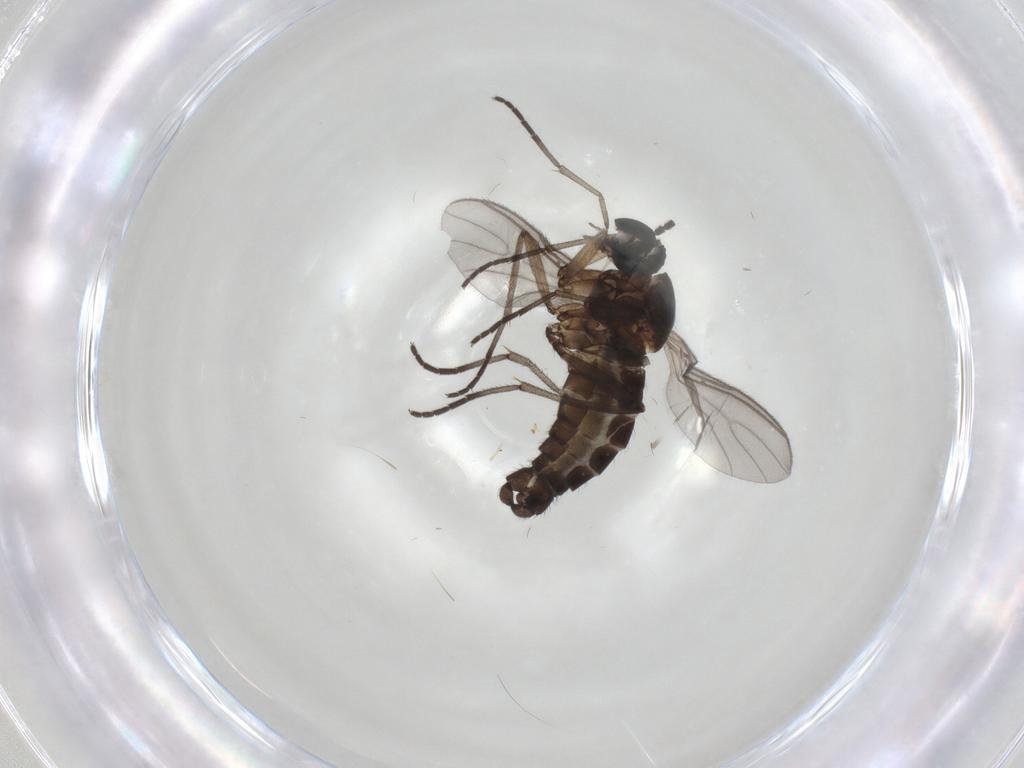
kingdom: Animalia
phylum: Arthropoda
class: Insecta
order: Diptera
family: Sciaridae
